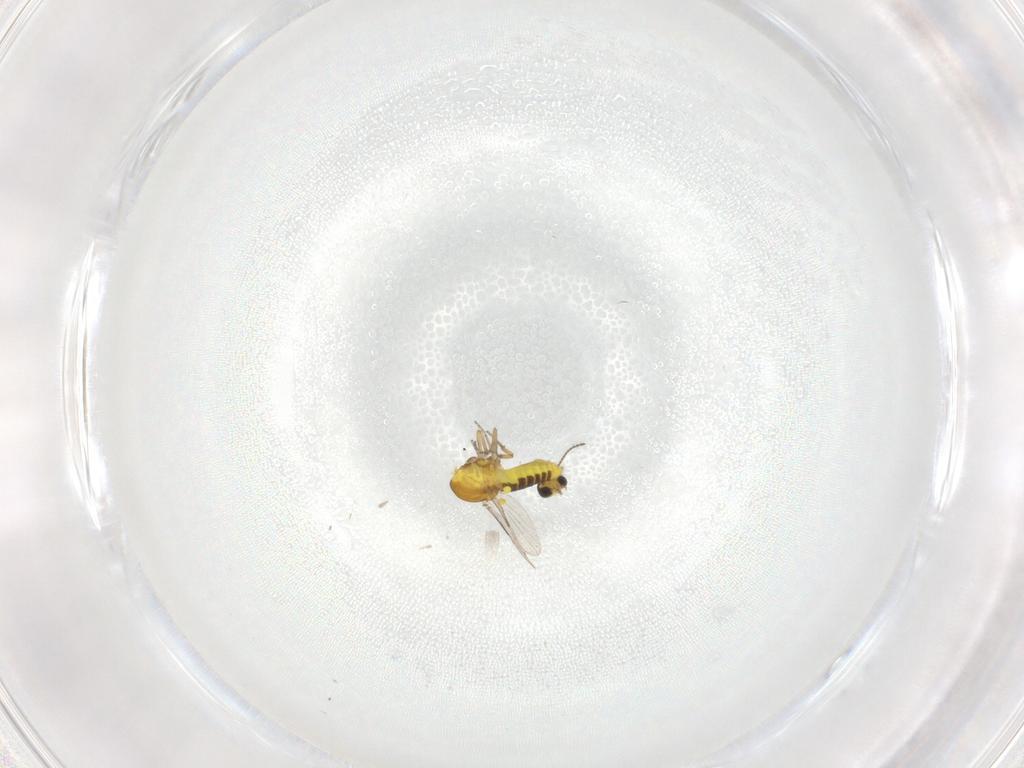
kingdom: Animalia
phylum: Arthropoda
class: Insecta
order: Diptera
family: Ceratopogonidae
